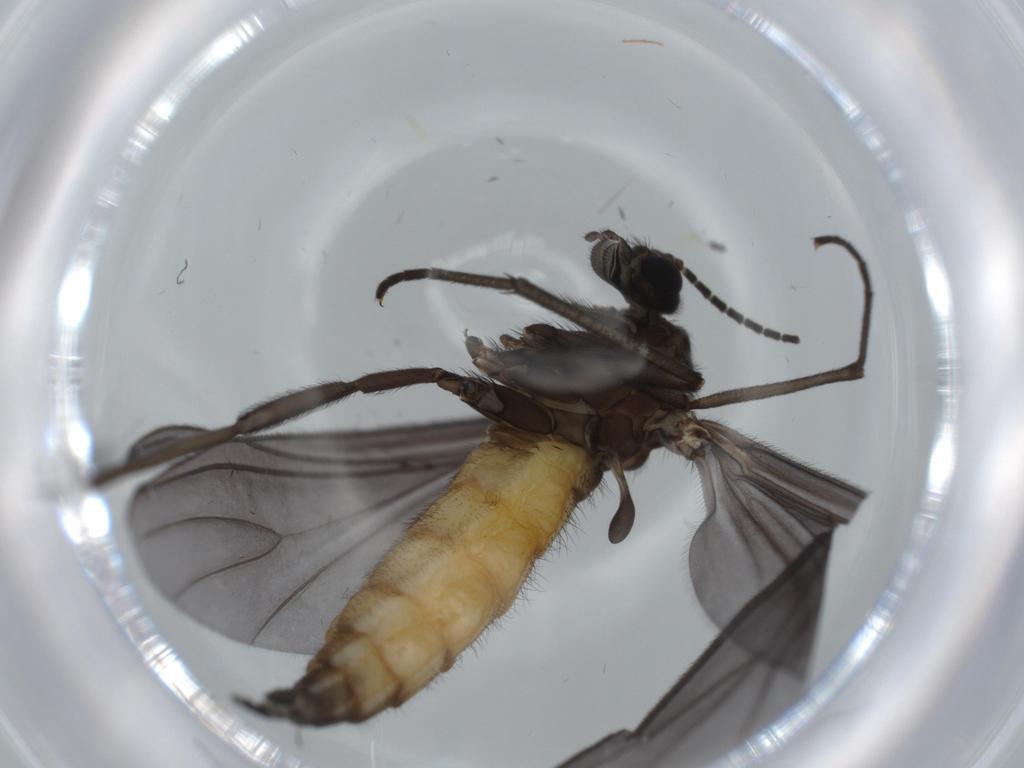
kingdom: Animalia
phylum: Arthropoda
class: Insecta
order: Diptera
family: Cecidomyiidae
